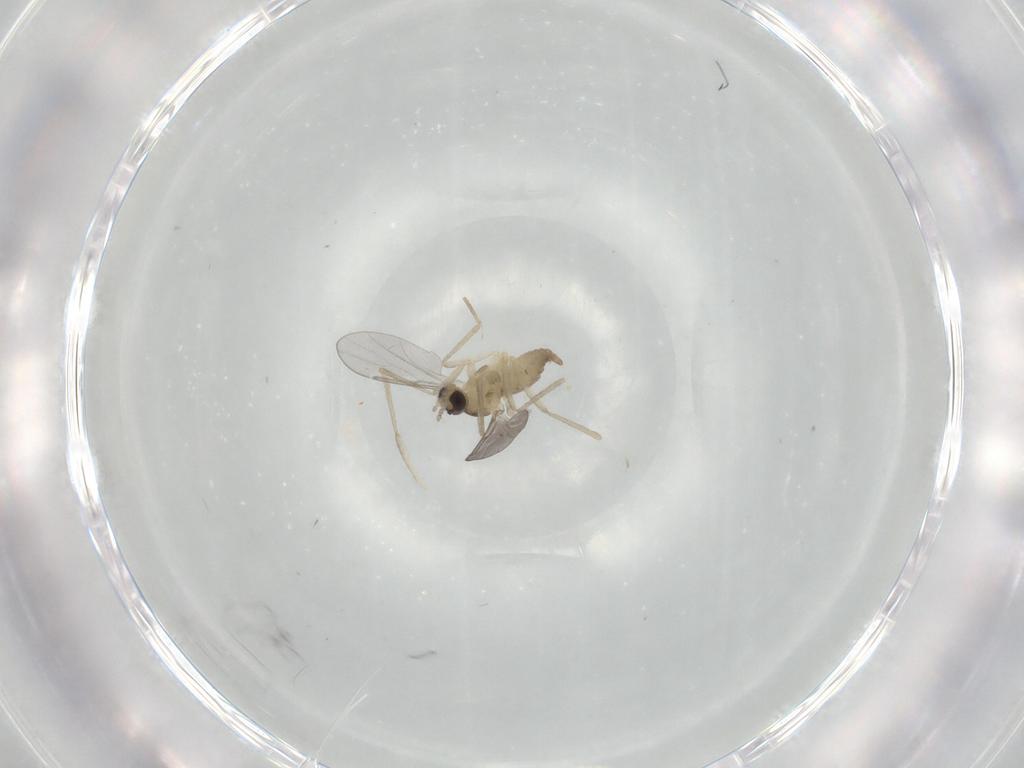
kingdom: Animalia
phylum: Arthropoda
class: Insecta
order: Diptera
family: Cecidomyiidae
